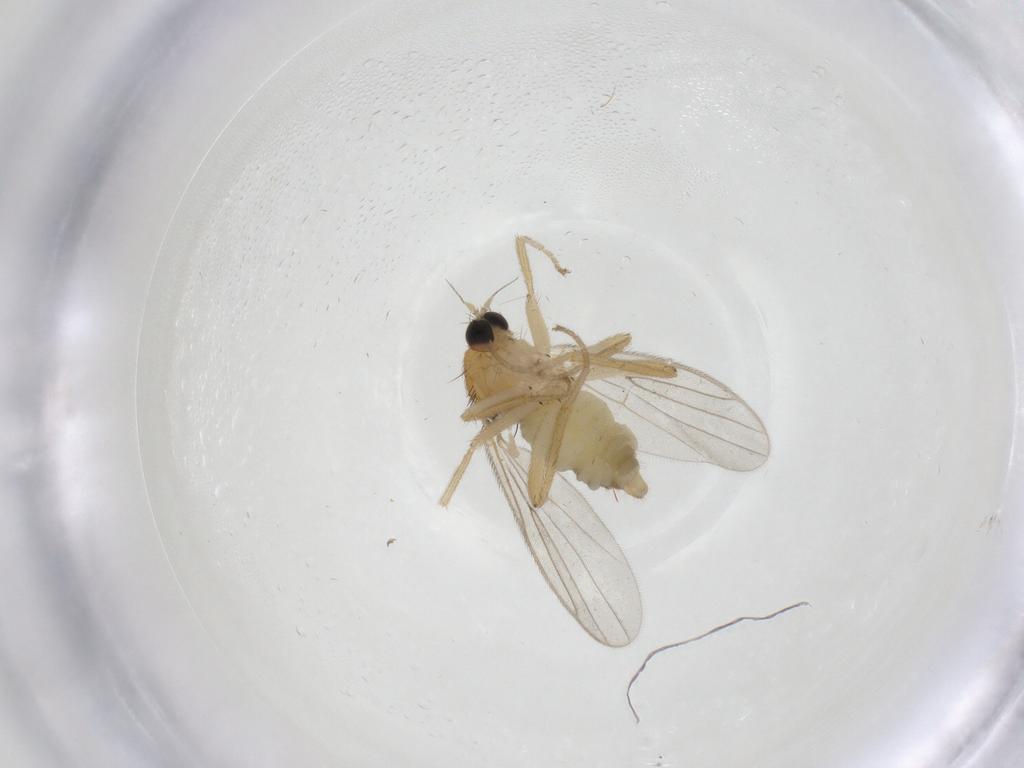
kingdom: Animalia
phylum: Arthropoda
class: Insecta
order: Diptera
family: Hybotidae
